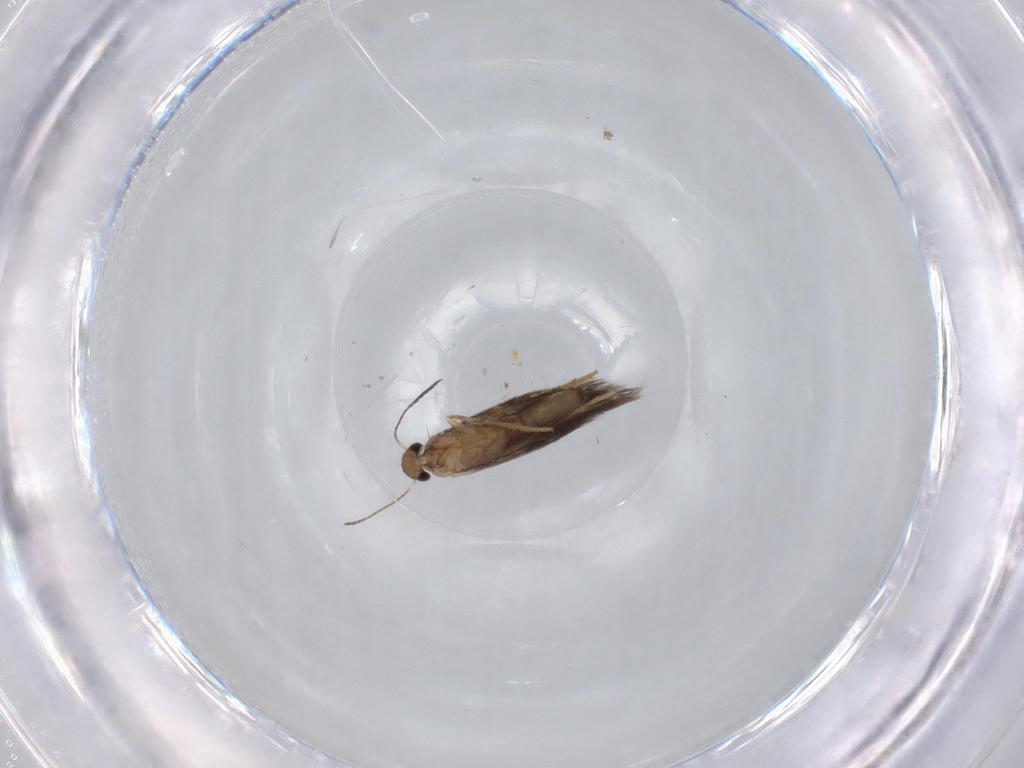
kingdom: Animalia
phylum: Arthropoda
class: Insecta
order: Lepidoptera
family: Heliozelidae
